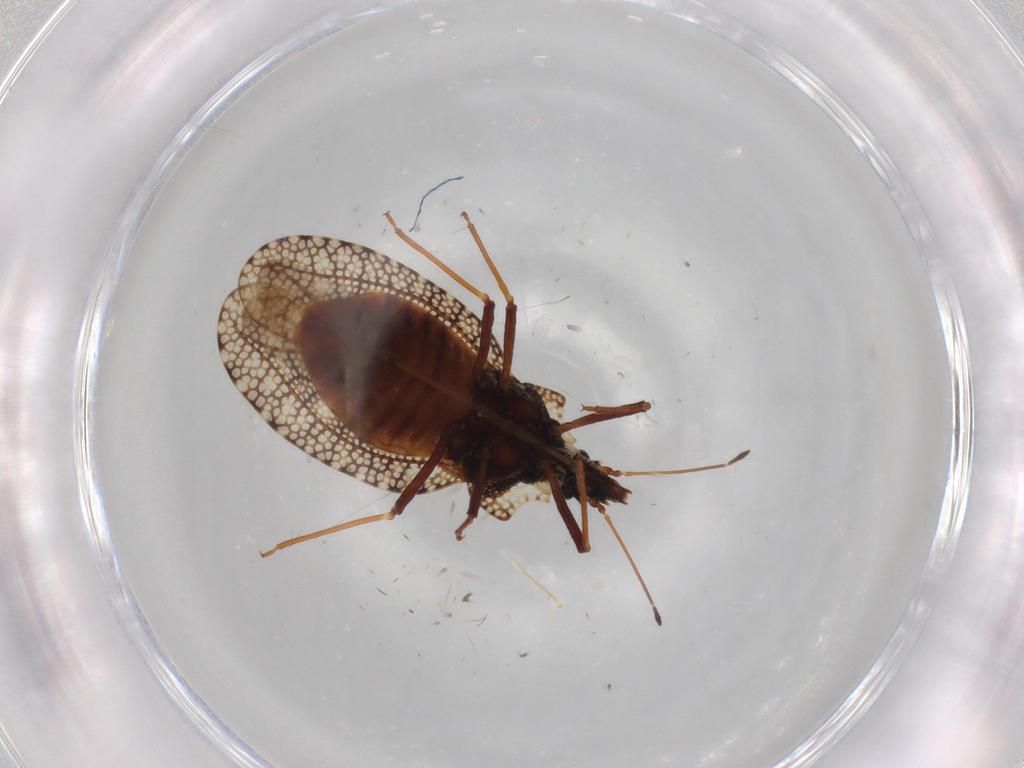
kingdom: Animalia
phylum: Arthropoda
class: Insecta
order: Hemiptera
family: Tingidae
